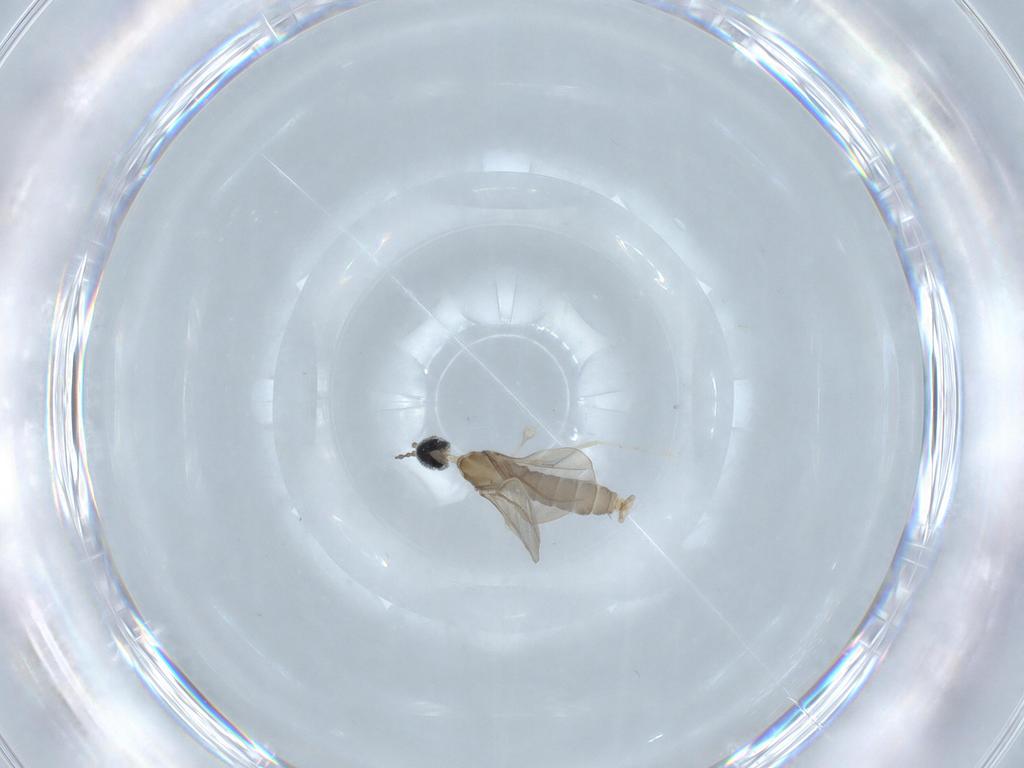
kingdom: Animalia
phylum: Arthropoda
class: Insecta
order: Diptera
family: Cecidomyiidae
